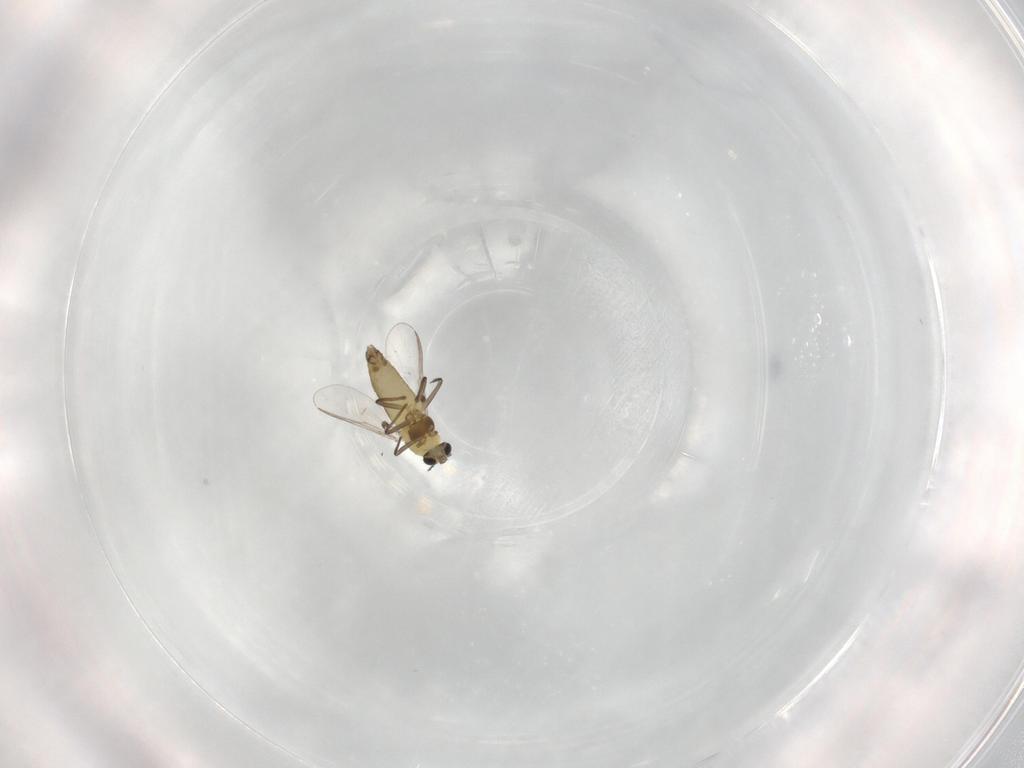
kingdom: Animalia
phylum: Arthropoda
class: Insecta
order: Diptera
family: Chironomidae
